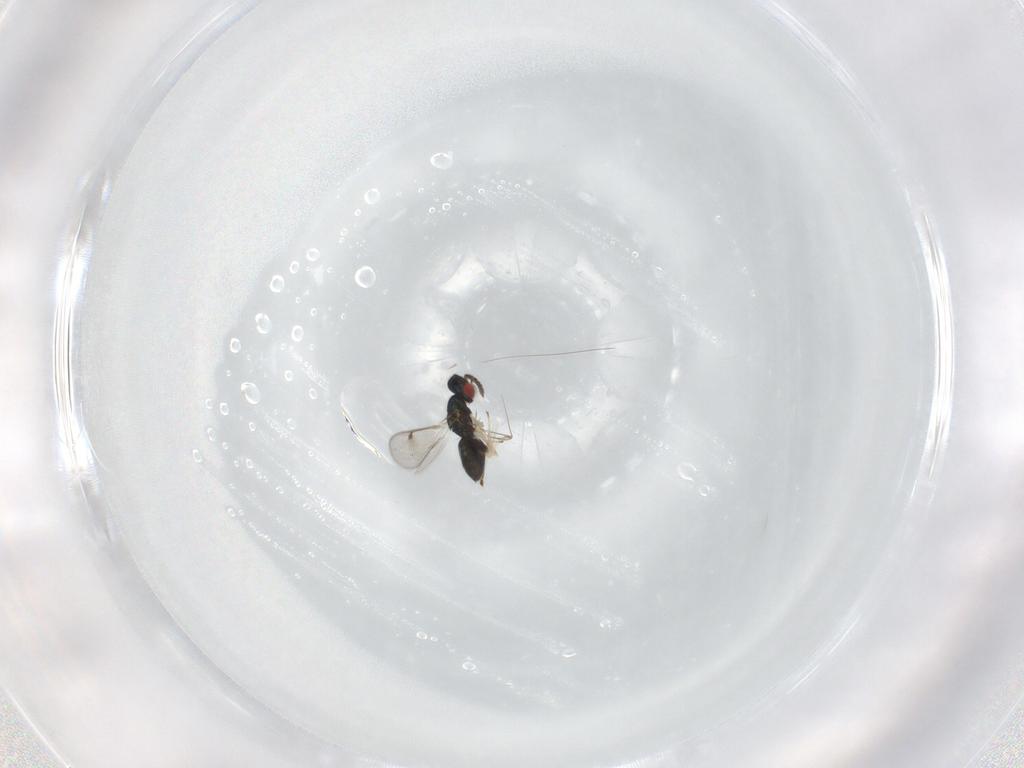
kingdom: Animalia
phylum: Arthropoda
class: Insecta
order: Hymenoptera
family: Eulophidae
